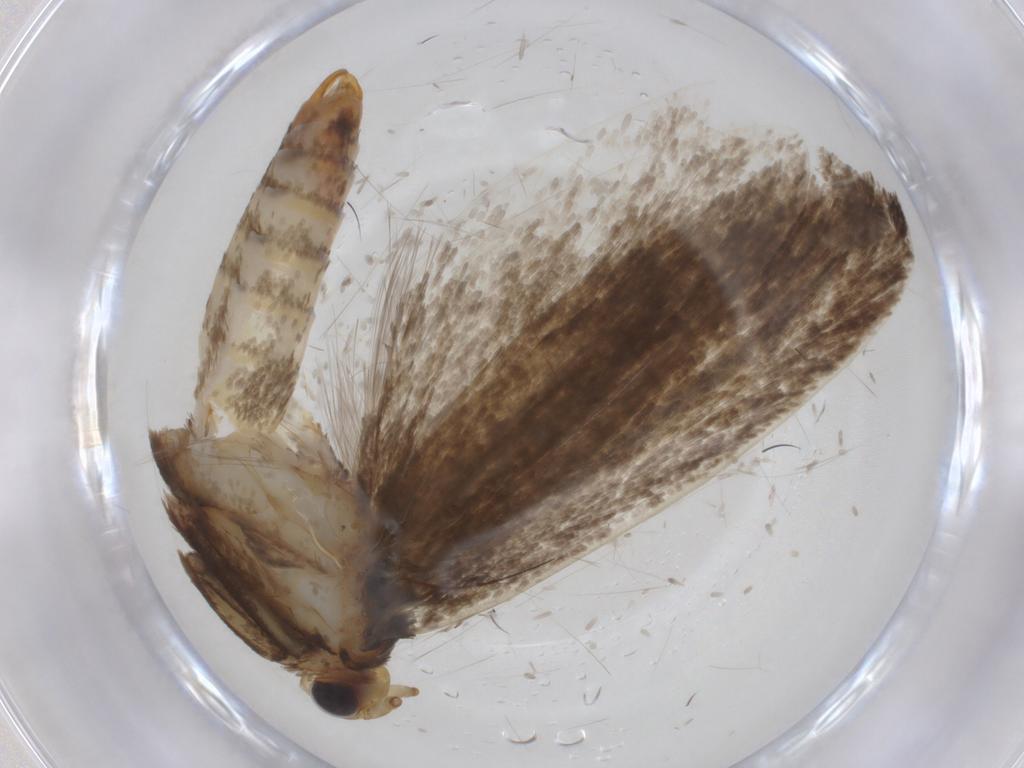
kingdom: Animalia
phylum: Arthropoda
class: Insecta
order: Lepidoptera
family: Tineidae
